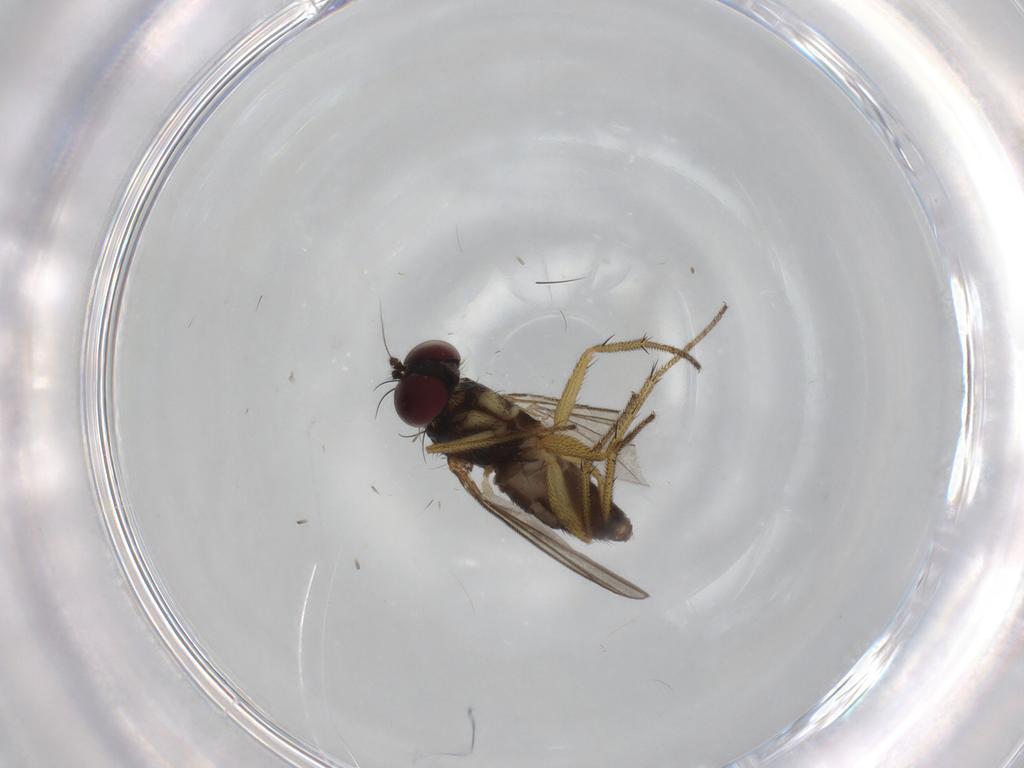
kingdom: Animalia
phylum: Arthropoda
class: Insecta
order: Diptera
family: Dolichopodidae
